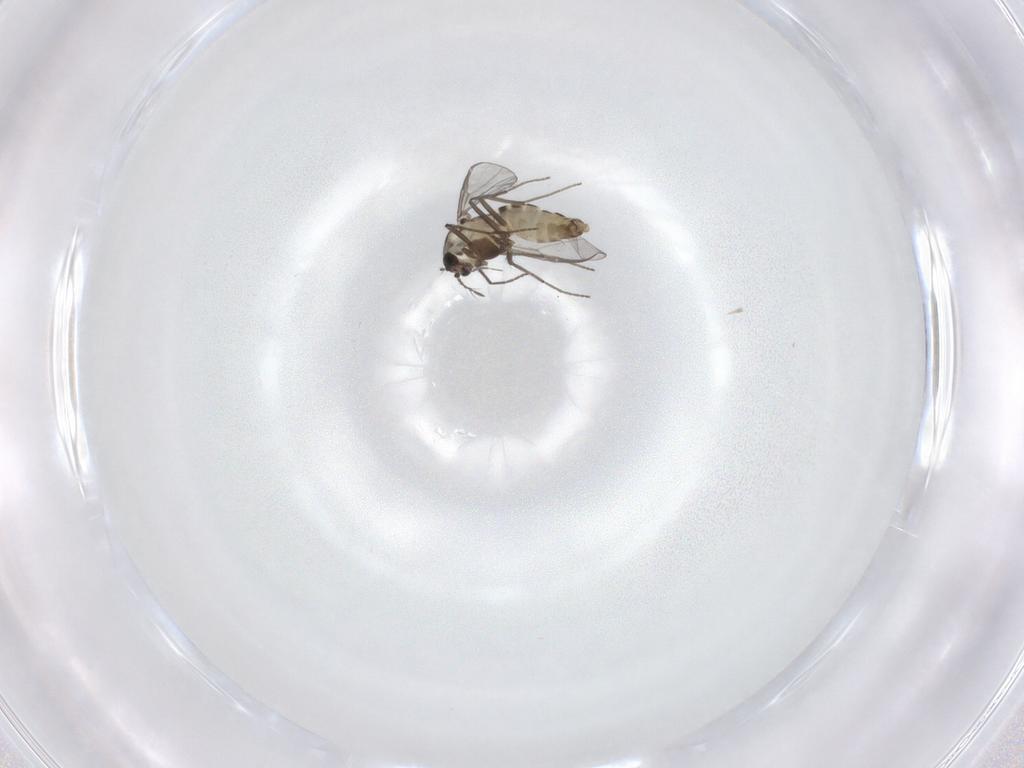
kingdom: Animalia
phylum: Arthropoda
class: Insecta
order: Diptera
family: Chironomidae
